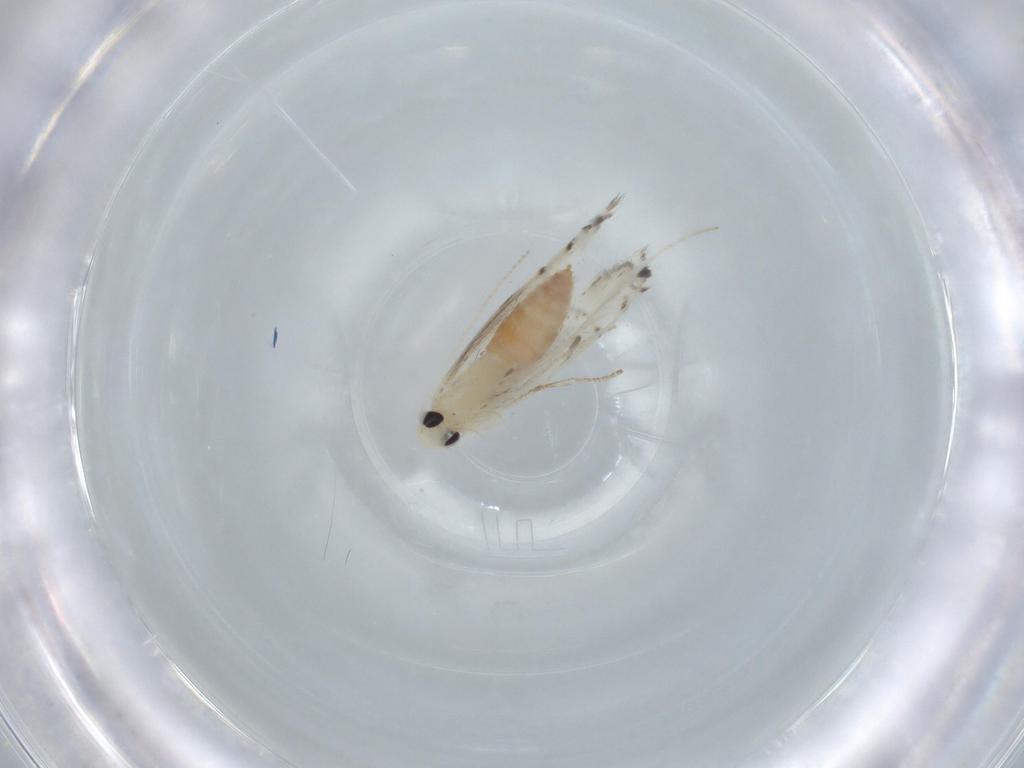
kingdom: Animalia
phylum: Arthropoda
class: Insecta
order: Lepidoptera
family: Gracillariidae
